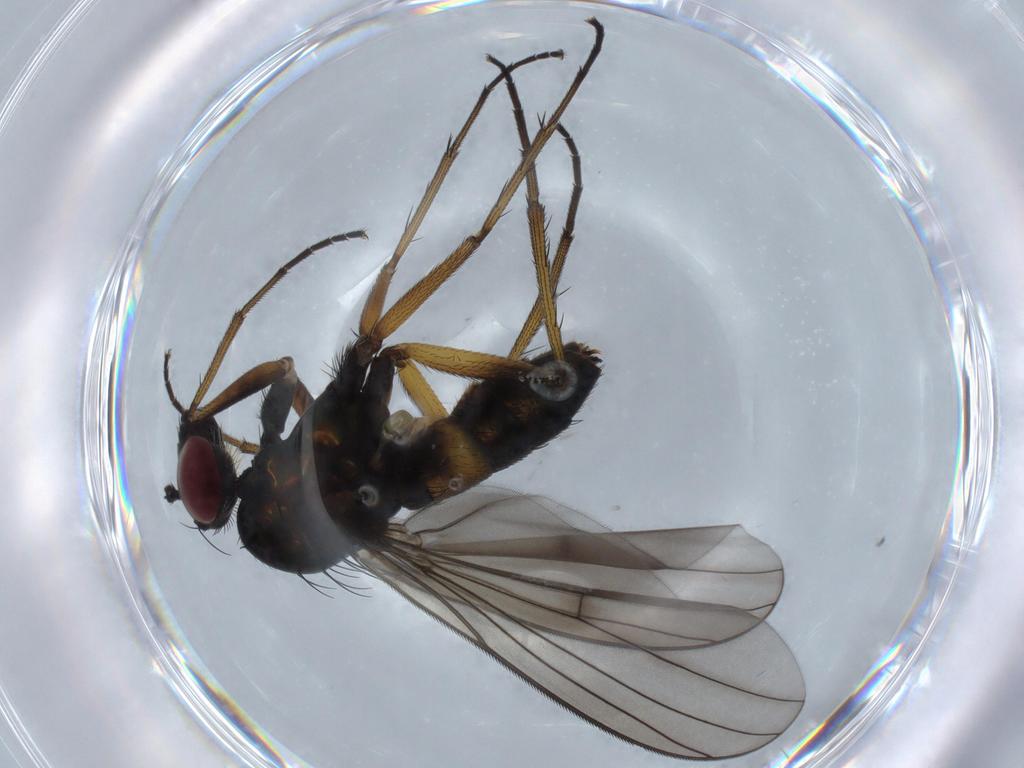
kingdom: Animalia
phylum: Arthropoda
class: Insecta
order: Diptera
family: Dolichopodidae
